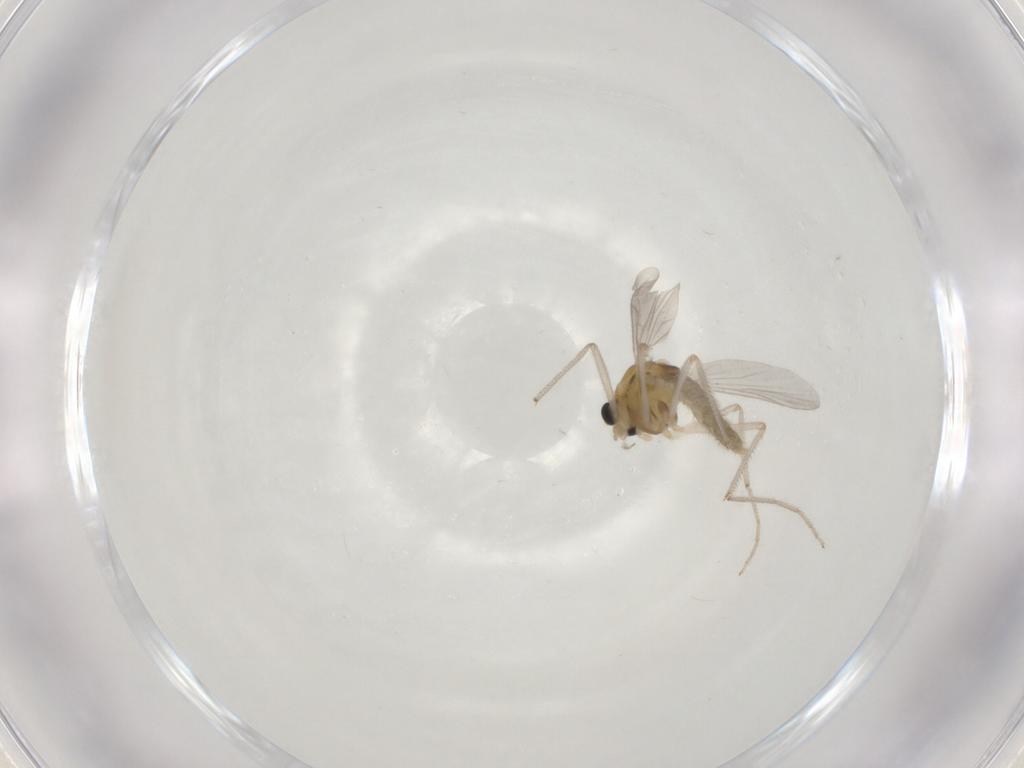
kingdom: Animalia
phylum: Arthropoda
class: Insecta
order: Diptera
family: Chironomidae
